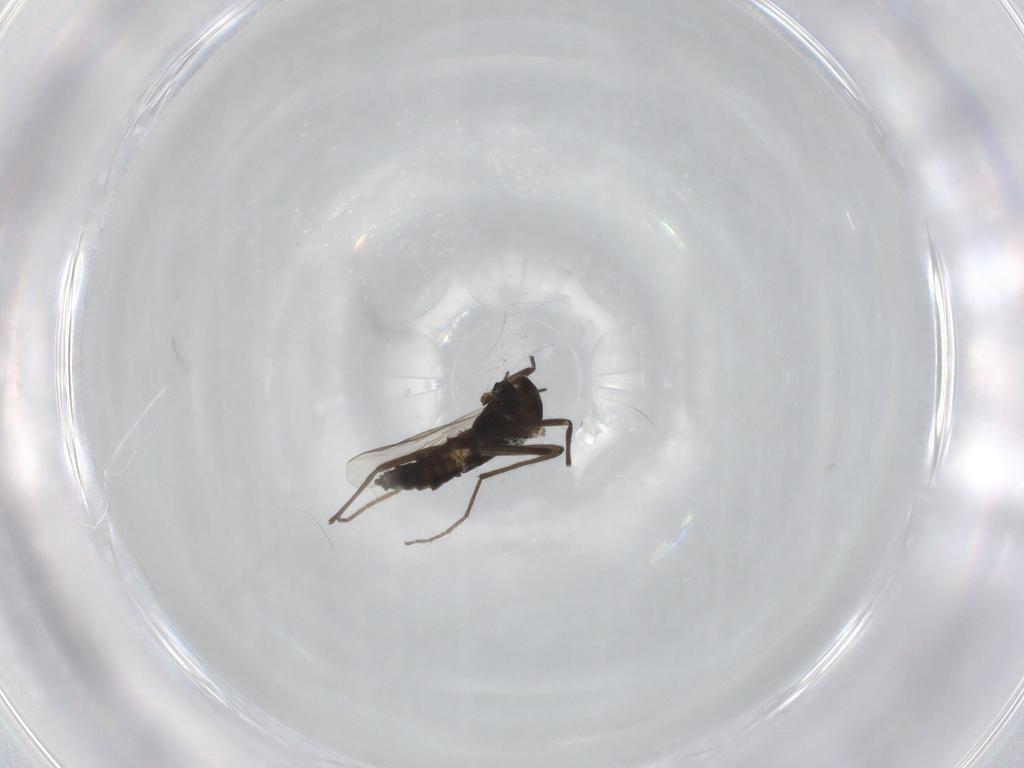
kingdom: Animalia
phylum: Arthropoda
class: Insecta
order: Diptera
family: Chironomidae
